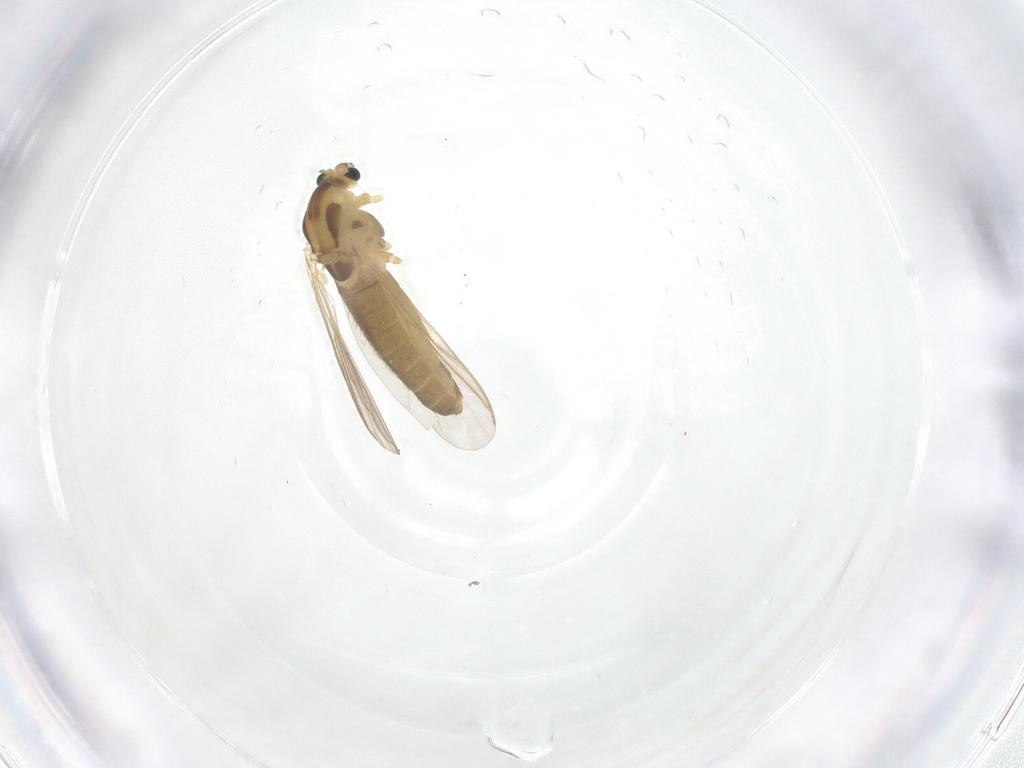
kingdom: Animalia
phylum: Arthropoda
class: Insecta
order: Diptera
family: Chironomidae
